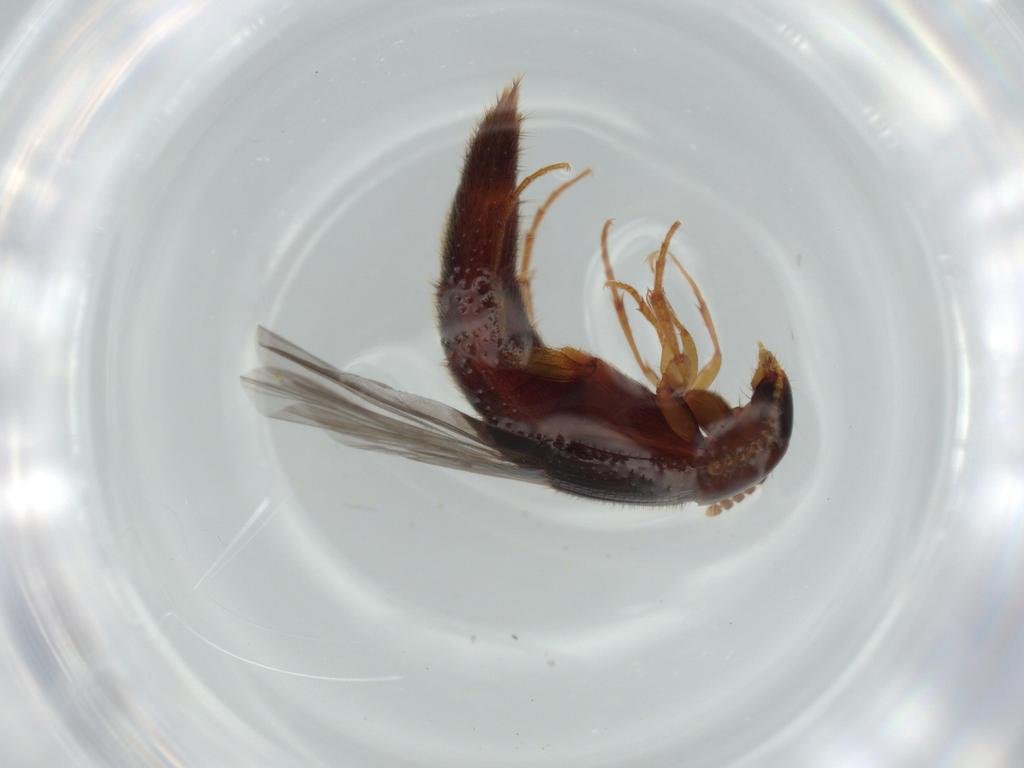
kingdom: Animalia
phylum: Arthropoda
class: Insecta
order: Coleoptera
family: Staphylinidae
